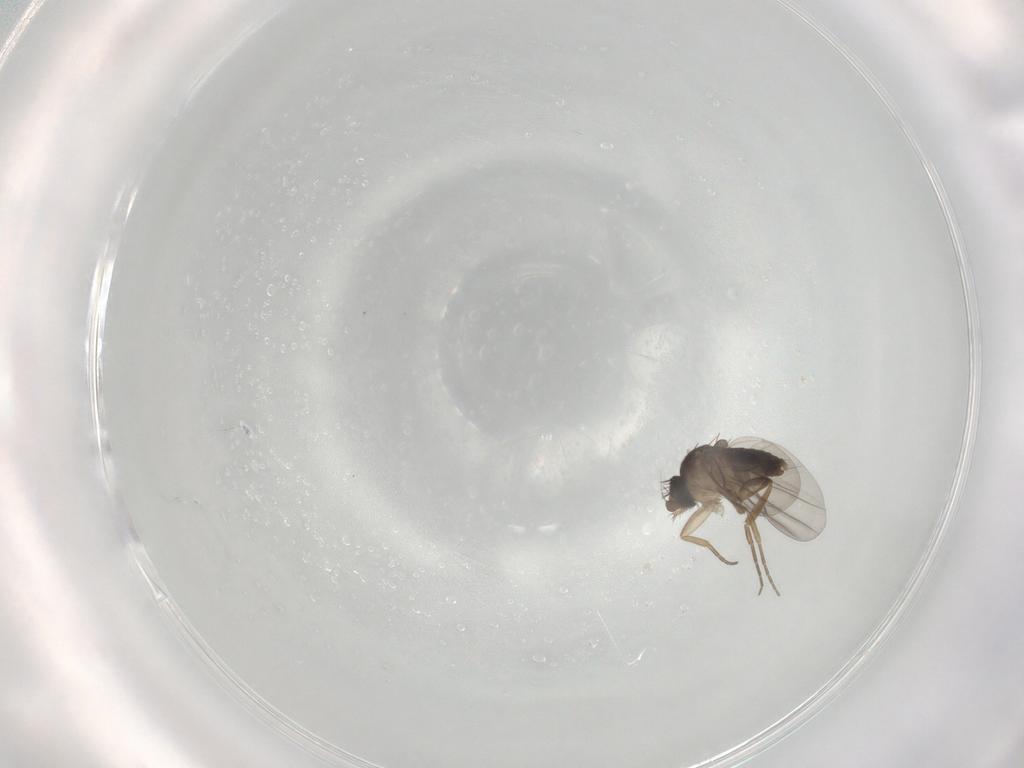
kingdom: Animalia
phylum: Arthropoda
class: Insecta
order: Diptera
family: Phoridae
